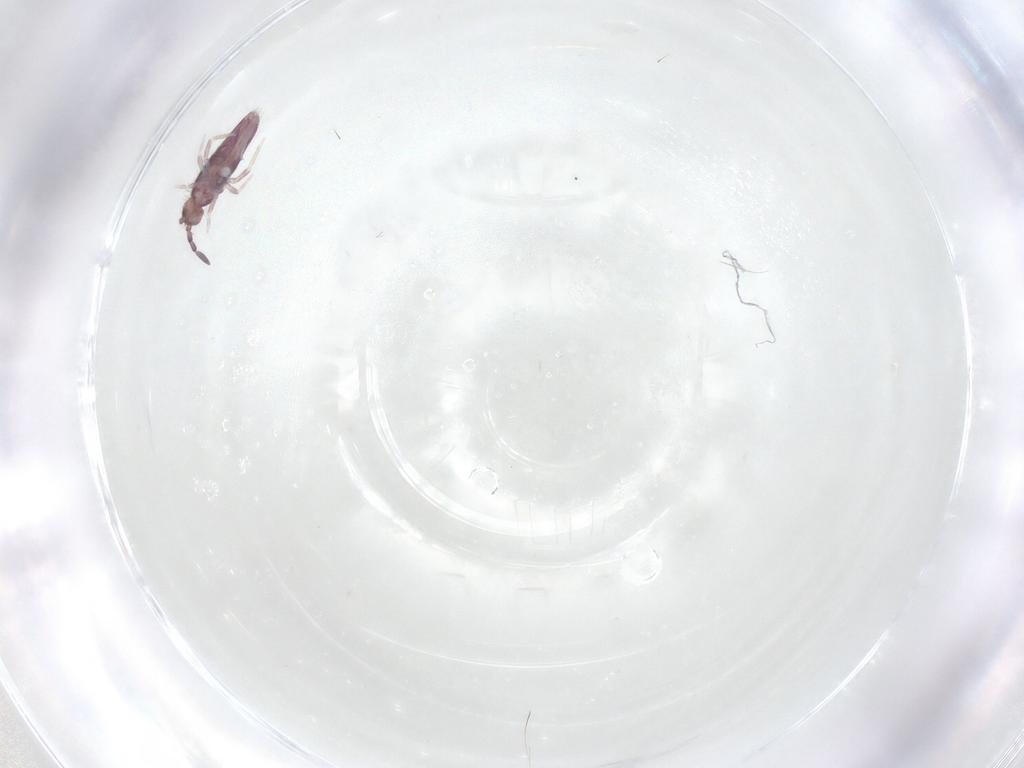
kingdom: Animalia
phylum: Arthropoda
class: Collembola
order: Entomobryomorpha
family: Entomobryidae
